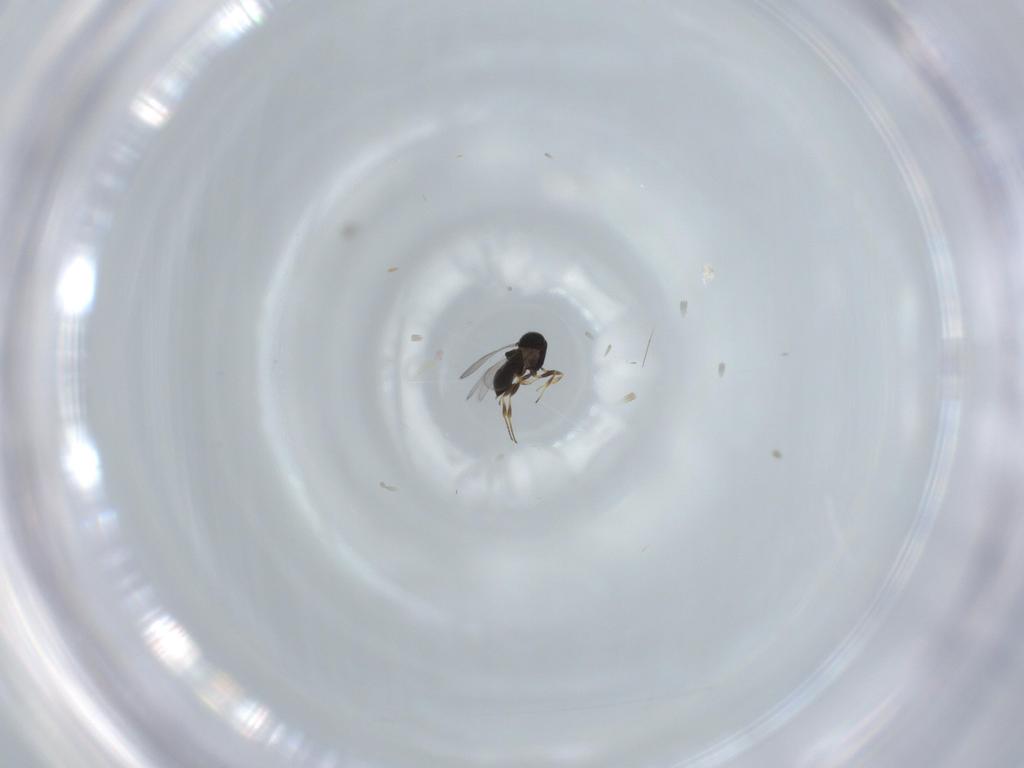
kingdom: Animalia
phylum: Arthropoda
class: Insecta
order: Hymenoptera
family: Scelionidae
